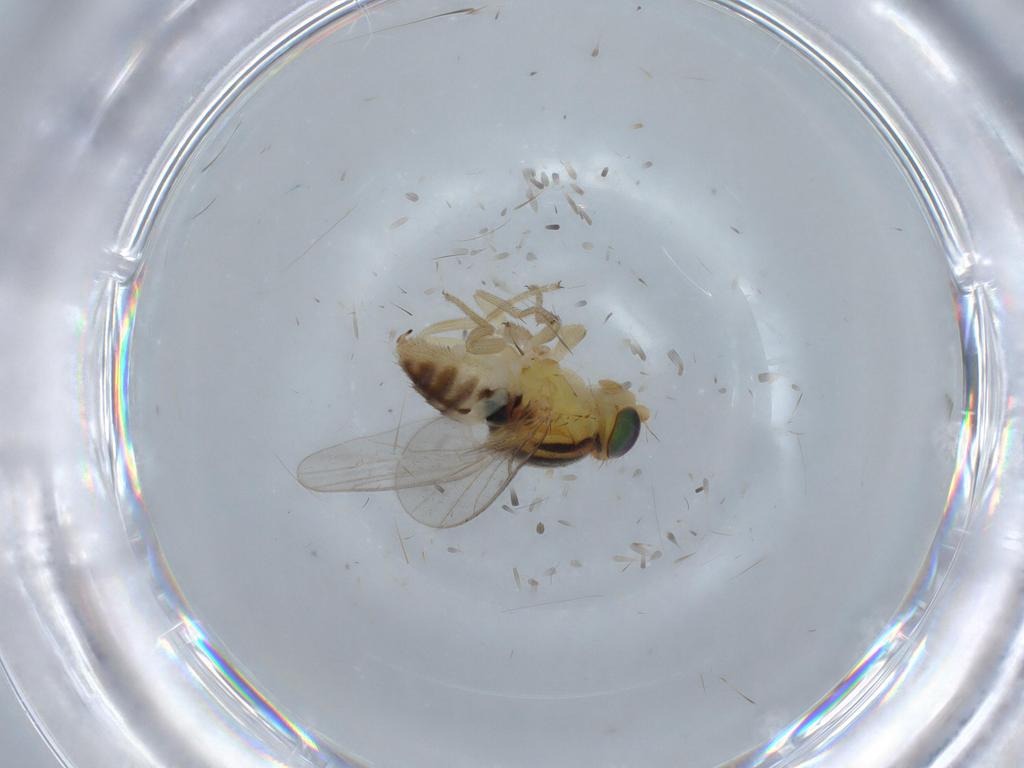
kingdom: Animalia
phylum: Arthropoda
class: Insecta
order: Diptera
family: Chloropidae
